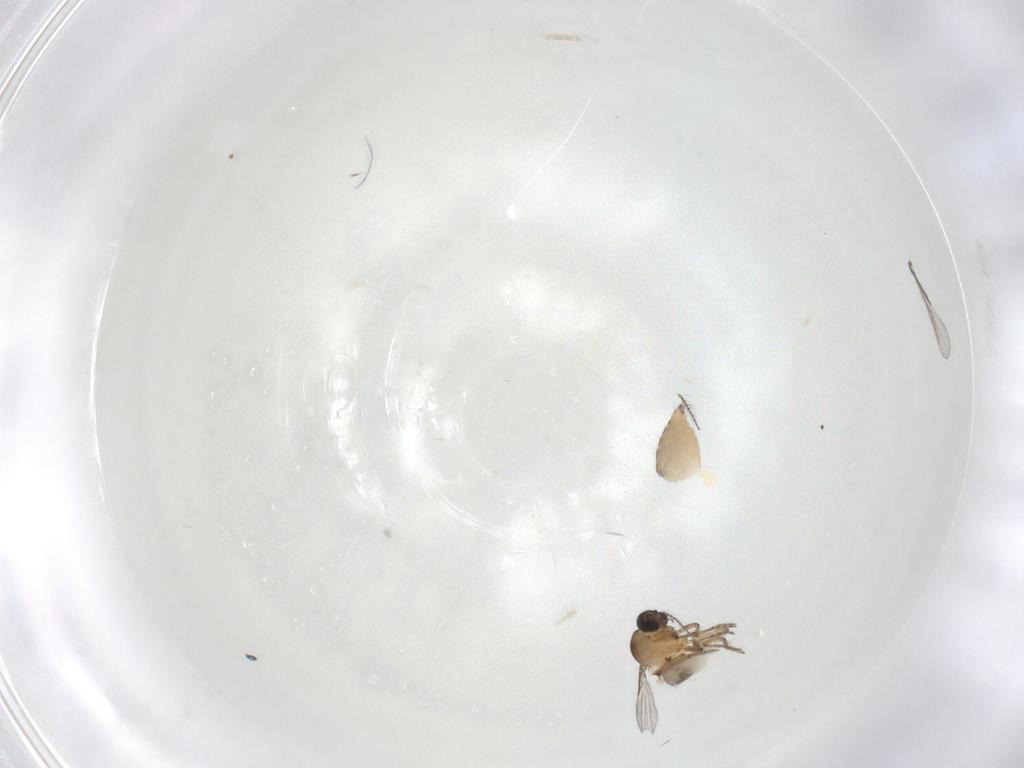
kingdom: Animalia
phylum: Arthropoda
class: Insecta
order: Diptera
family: Ceratopogonidae
